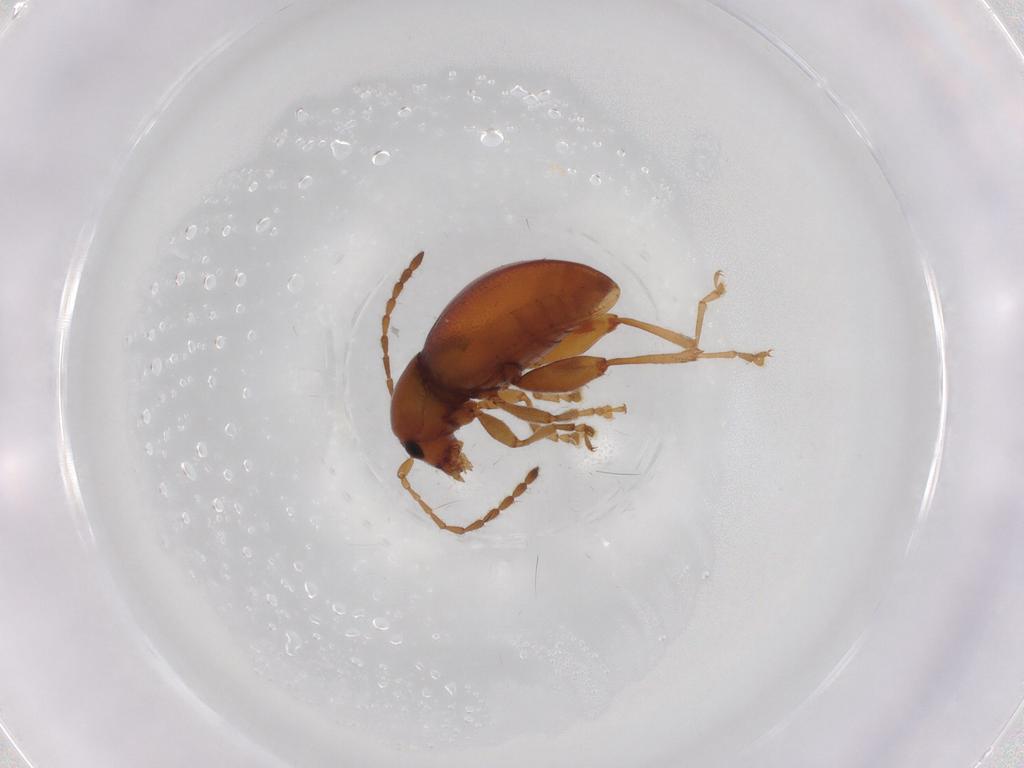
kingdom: Animalia
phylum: Arthropoda
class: Insecta
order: Coleoptera
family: Chrysomelidae
